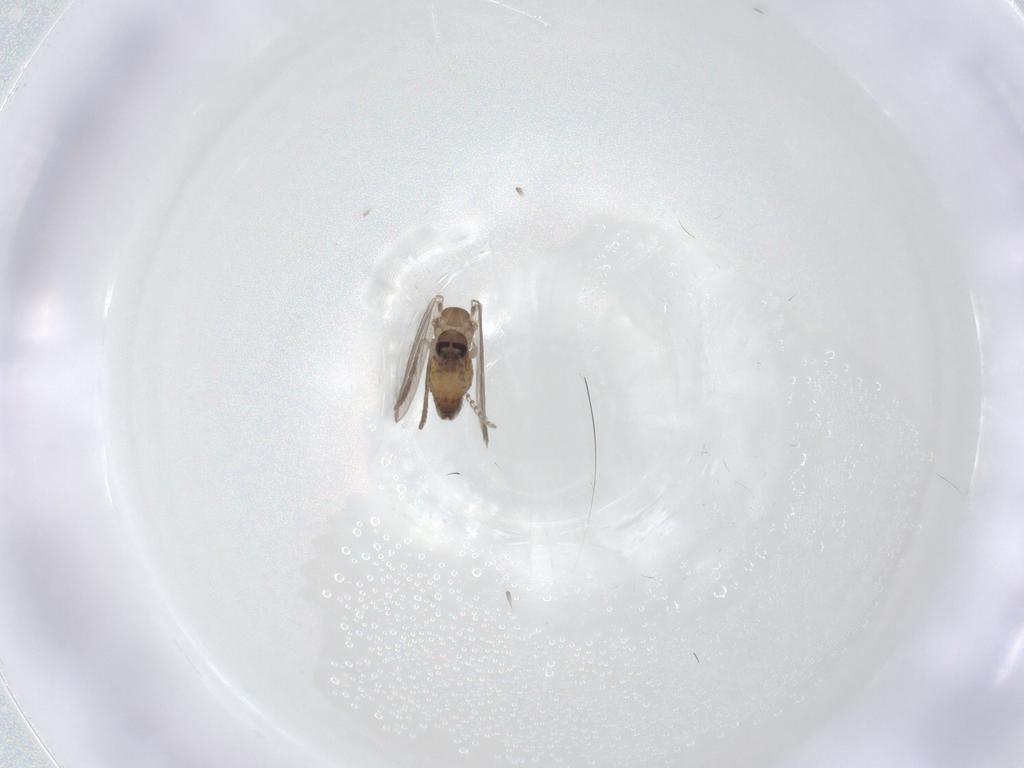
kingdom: Animalia
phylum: Arthropoda
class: Insecta
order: Diptera
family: Psychodidae
